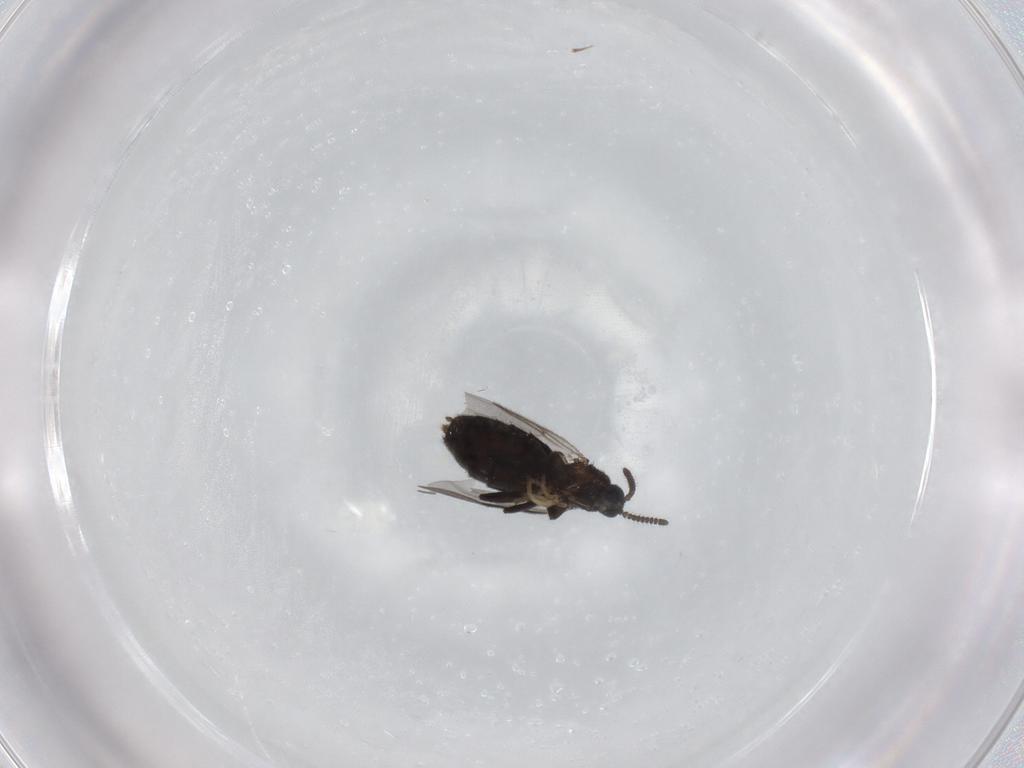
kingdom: Animalia
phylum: Arthropoda
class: Insecta
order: Diptera
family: Scatopsidae
